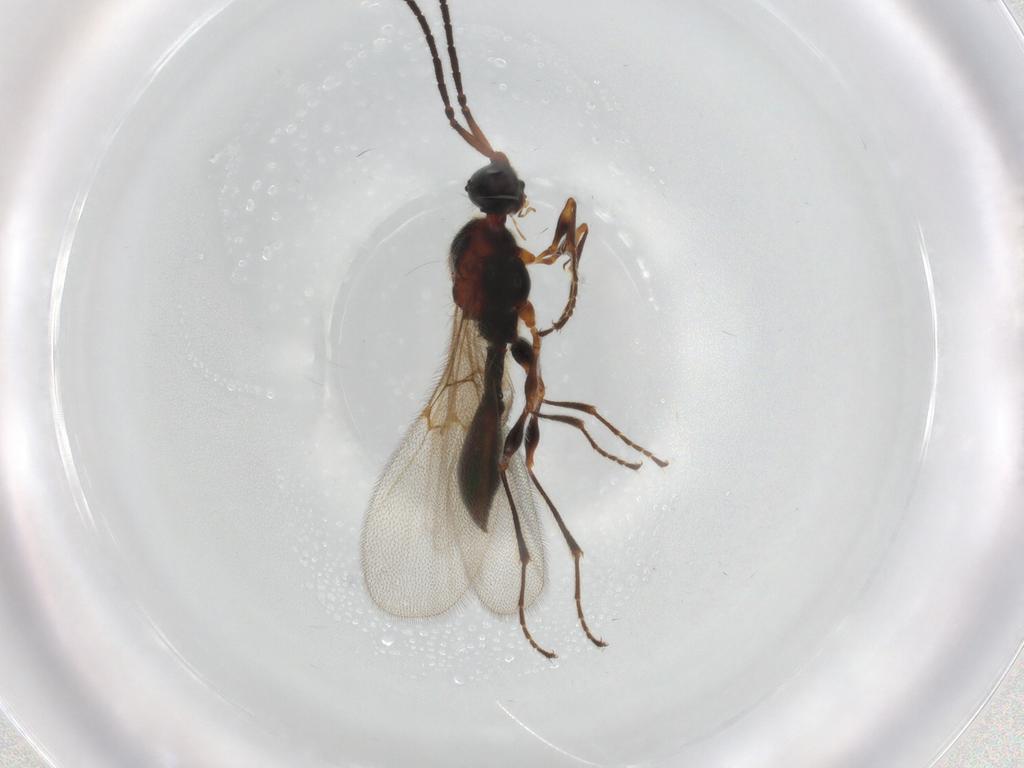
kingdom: Animalia
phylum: Arthropoda
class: Insecta
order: Hymenoptera
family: Diapriidae
